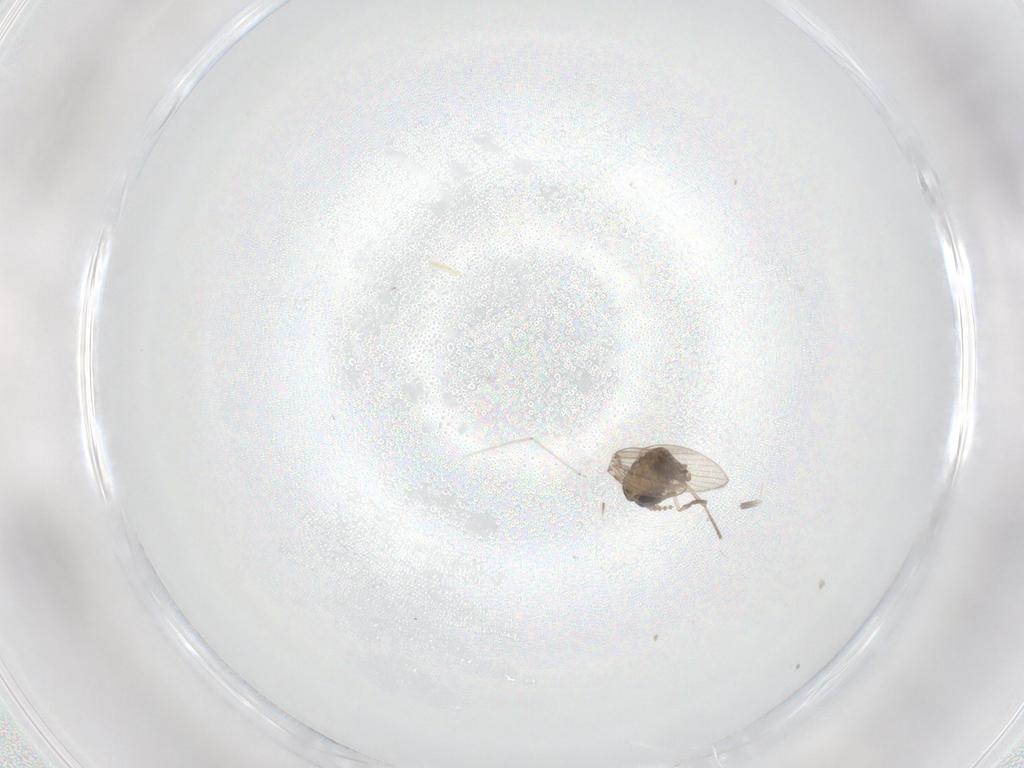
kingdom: Animalia
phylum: Arthropoda
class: Insecta
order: Diptera
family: Psychodidae
